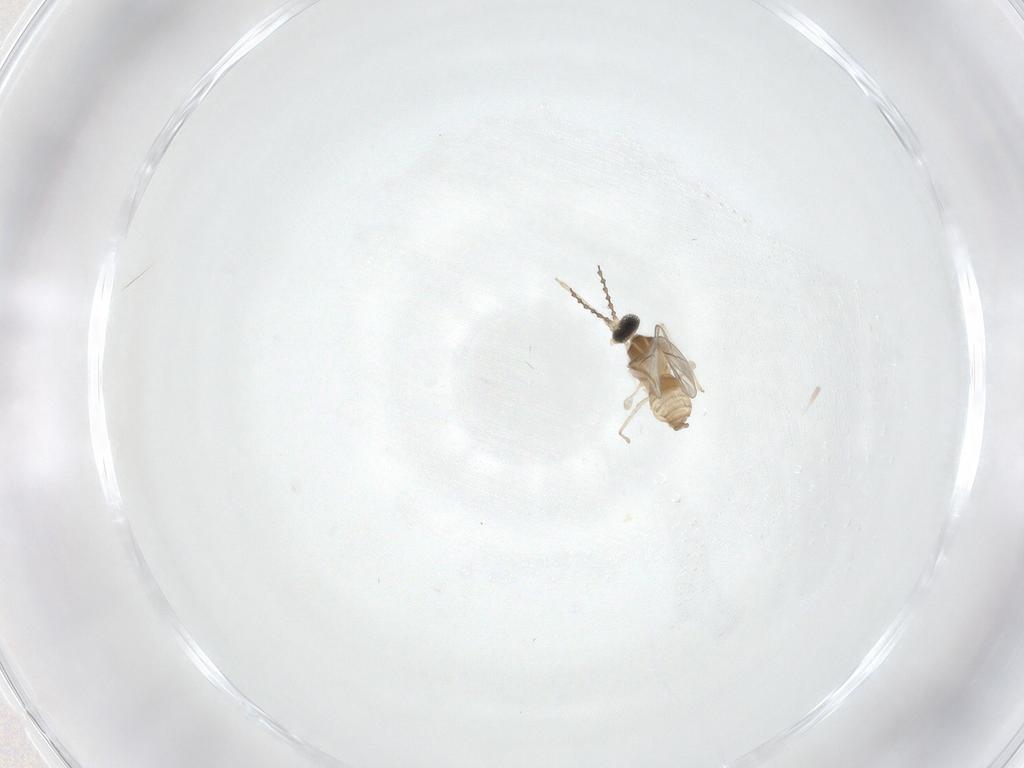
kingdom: Animalia
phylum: Arthropoda
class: Insecta
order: Diptera
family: Cecidomyiidae
